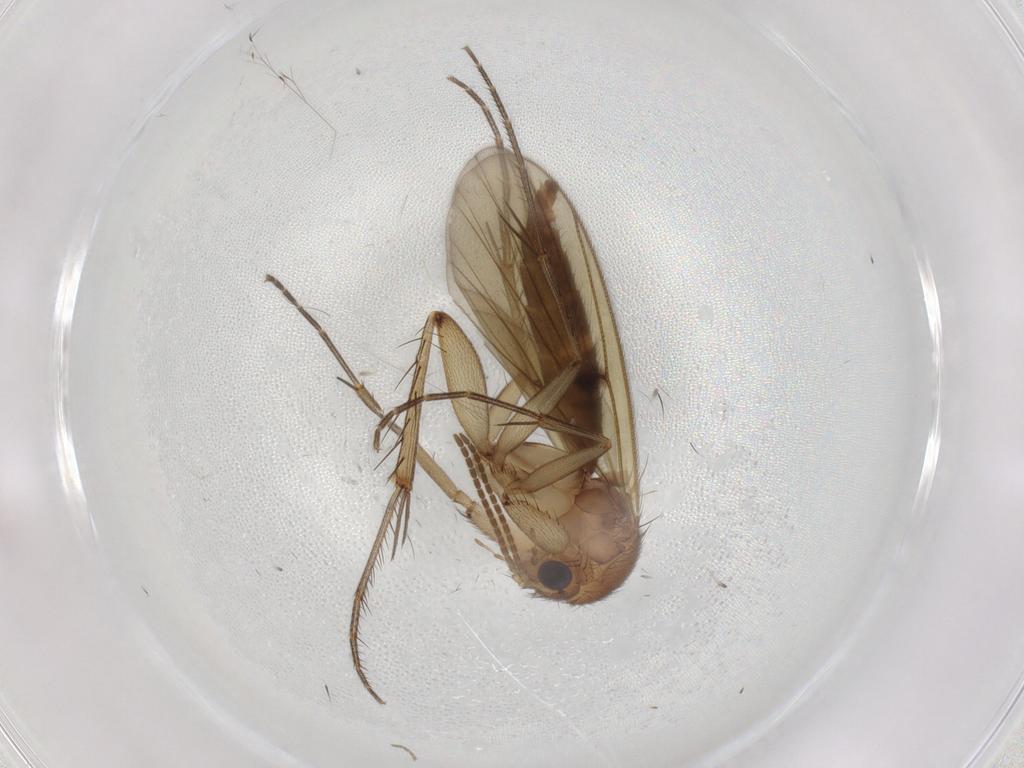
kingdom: Animalia
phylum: Arthropoda
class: Insecta
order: Diptera
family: Mycetophilidae
